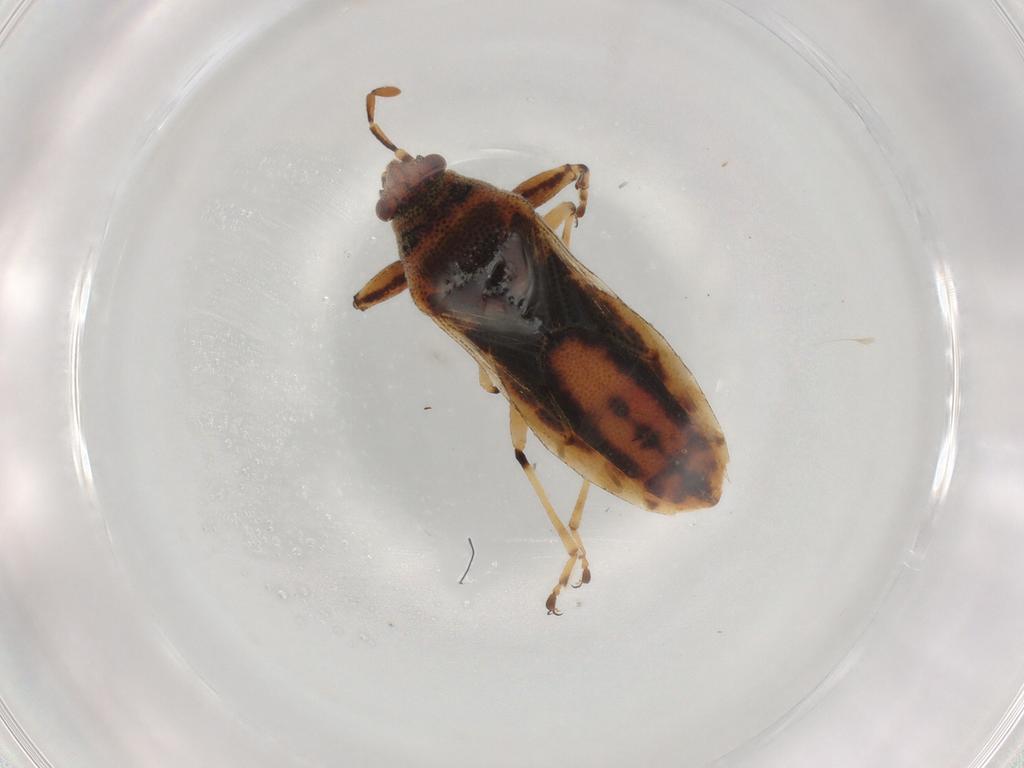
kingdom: Animalia
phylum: Arthropoda
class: Insecta
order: Hemiptera
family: Pachygronthidae
